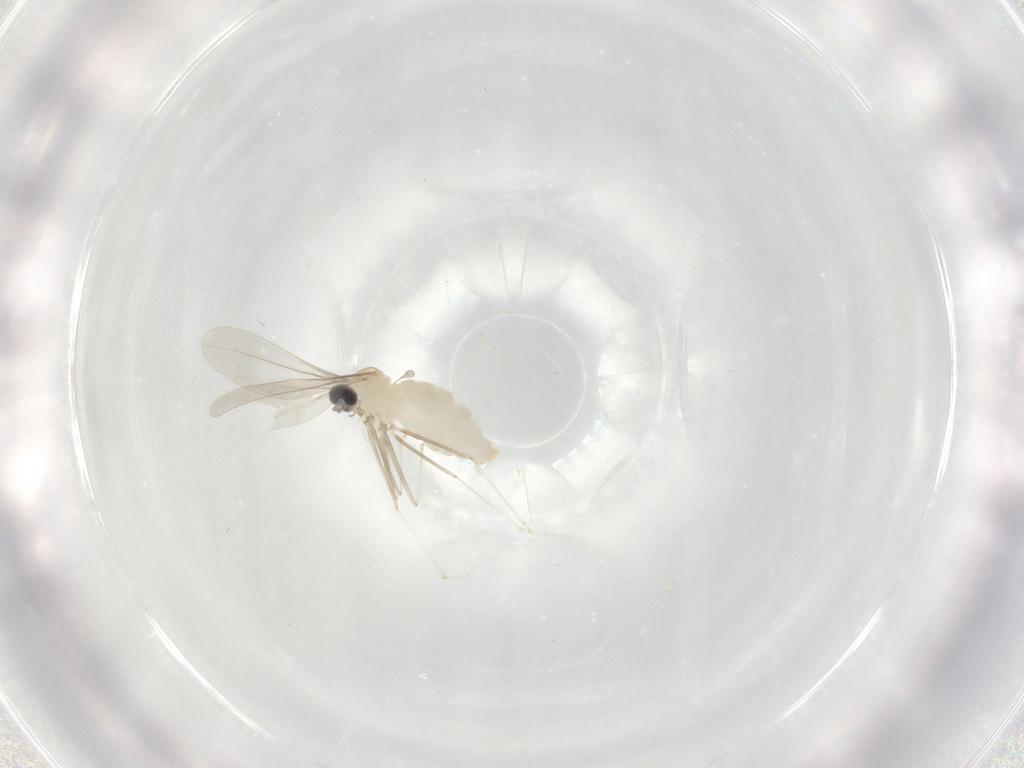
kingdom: Animalia
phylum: Arthropoda
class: Insecta
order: Diptera
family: Cecidomyiidae
